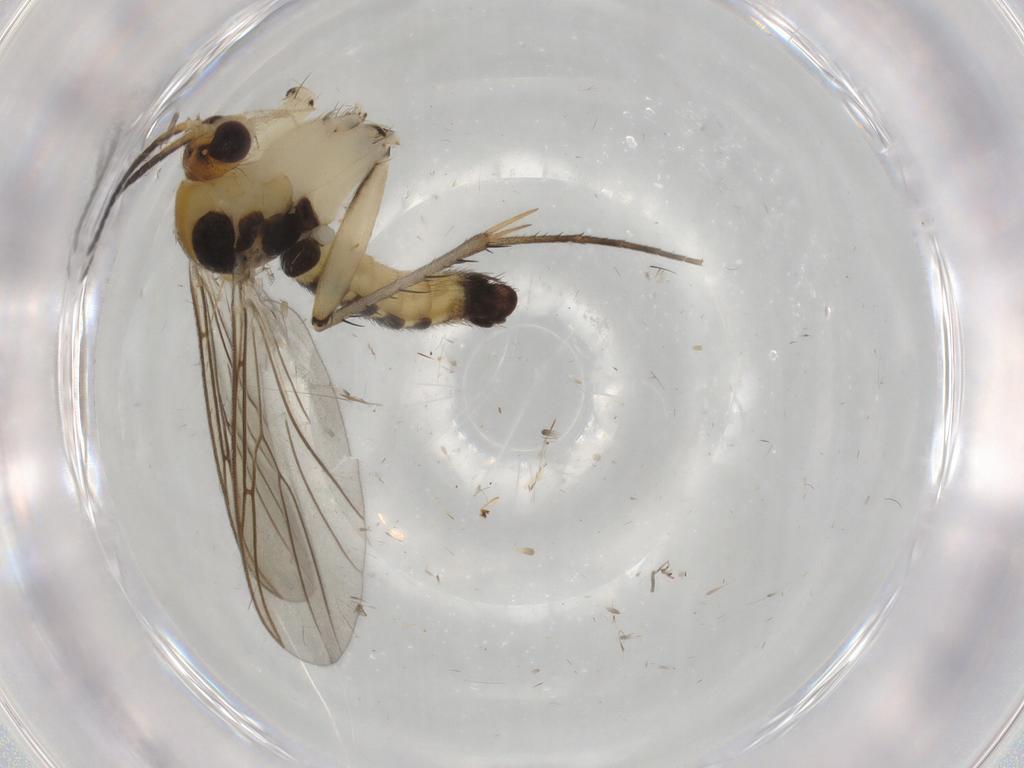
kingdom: Animalia
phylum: Arthropoda
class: Insecta
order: Diptera
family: Mycetophilidae
